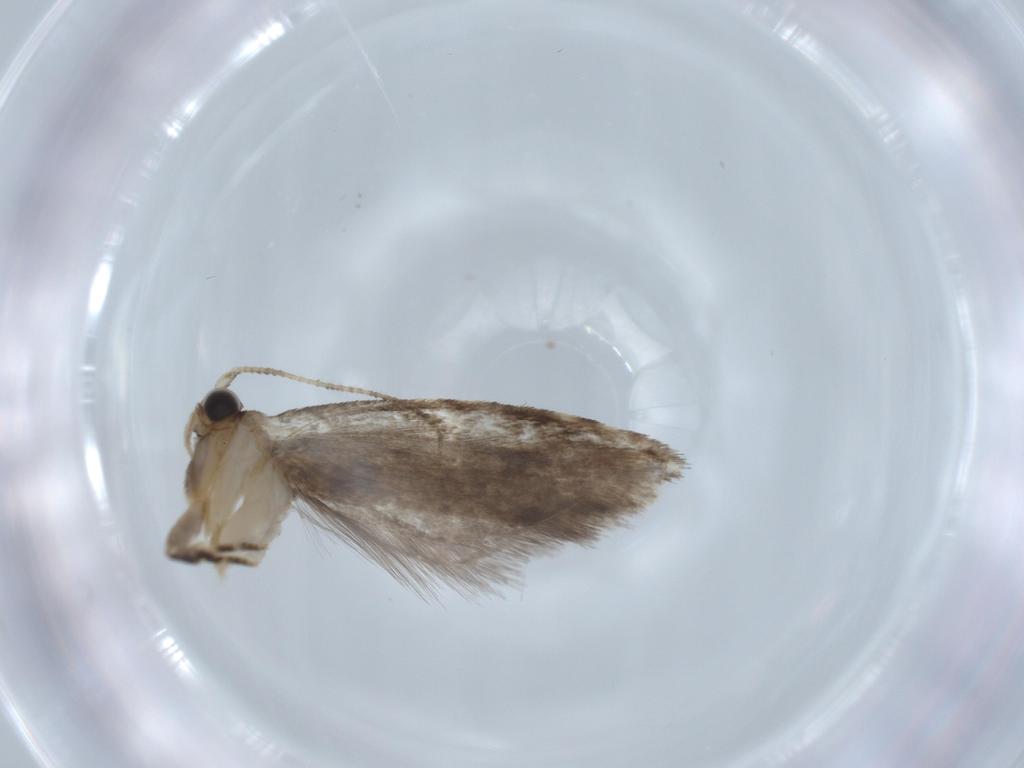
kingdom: Animalia
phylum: Arthropoda
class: Insecta
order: Lepidoptera
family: Tineidae
